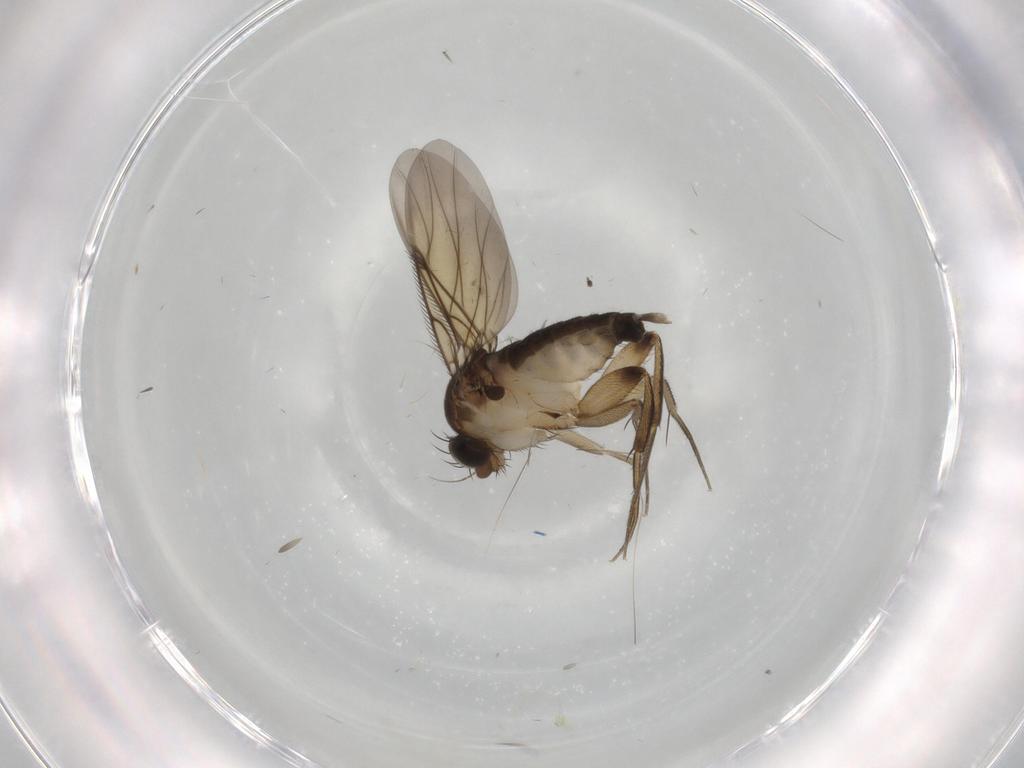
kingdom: Animalia
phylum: Arthropoda
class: Insecta
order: Diptera
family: Phoridae
